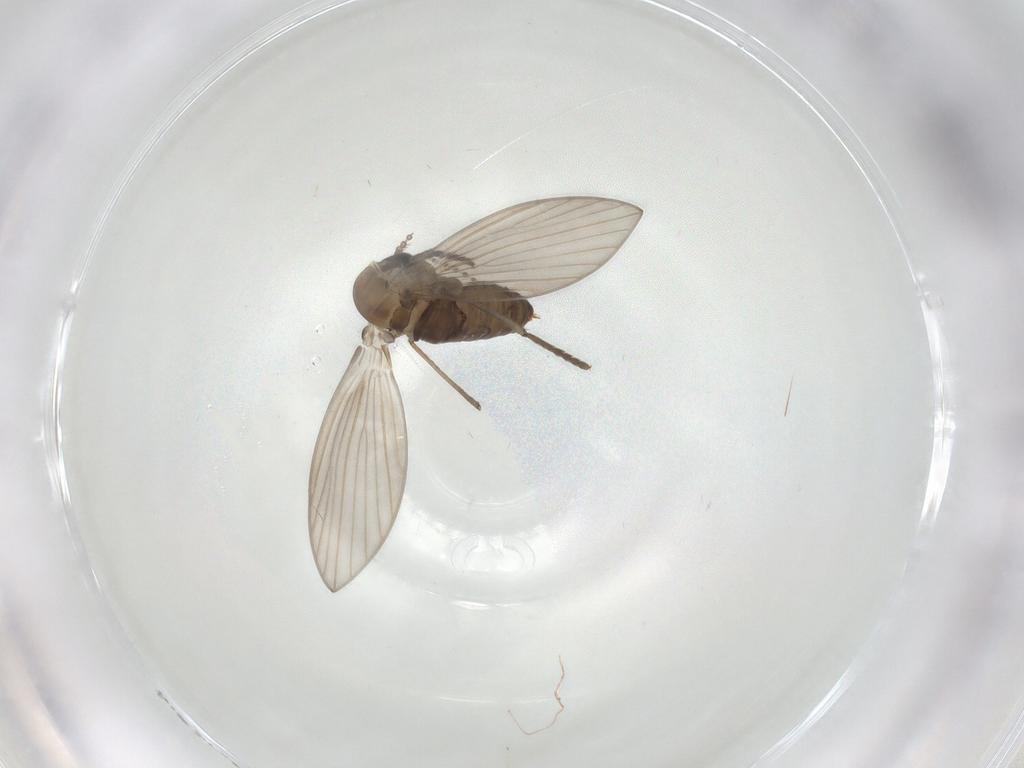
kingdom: Animalia
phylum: Arthropoda
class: Insecta
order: Diptera
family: Psychodidae
